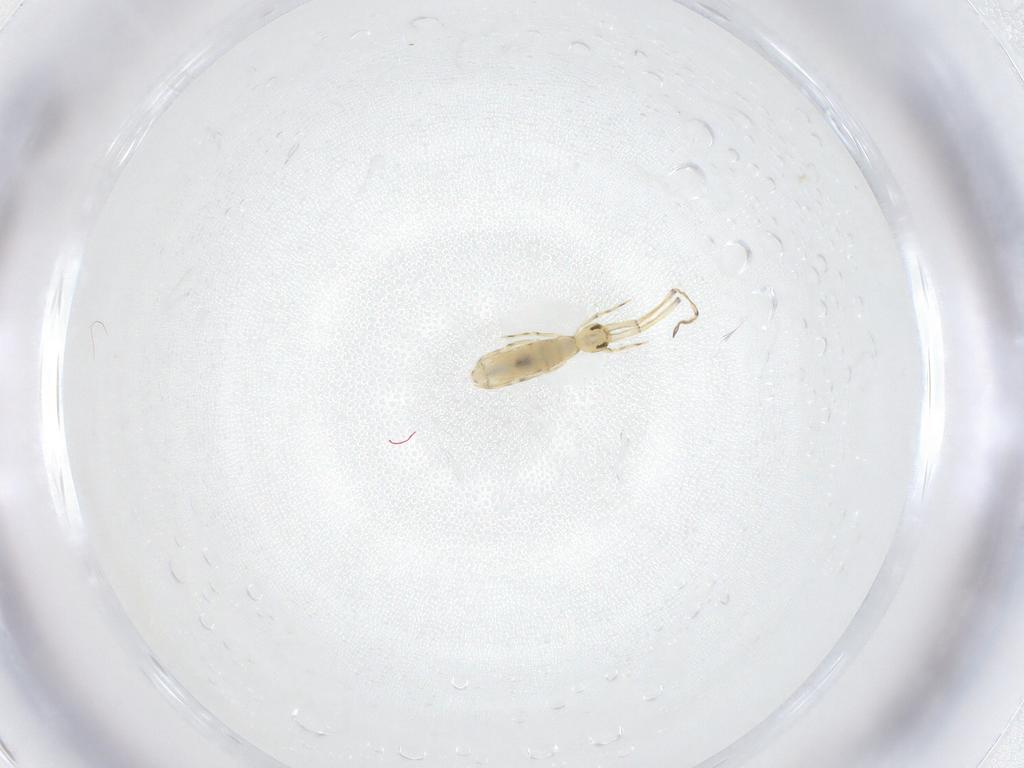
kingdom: Animalia
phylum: Arthropoda
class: Collembola
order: Entomobryomorpha
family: Paronellidae
